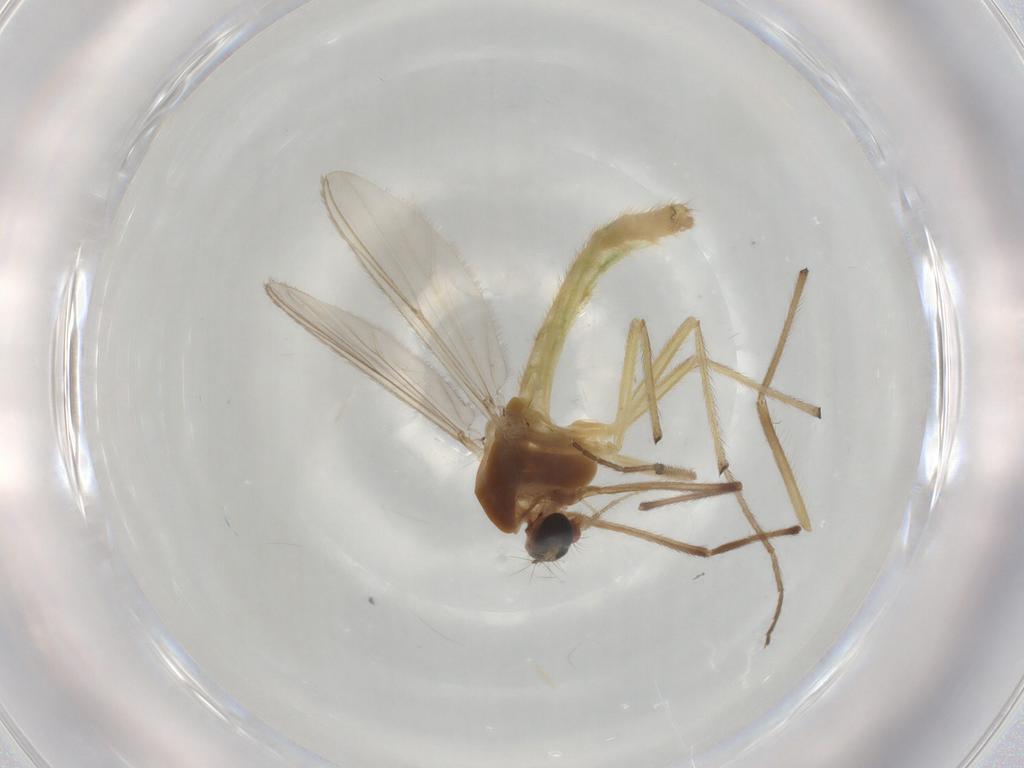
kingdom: Animalia
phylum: Arthropoda
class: Insecta
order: Diptera
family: Chironomidae
